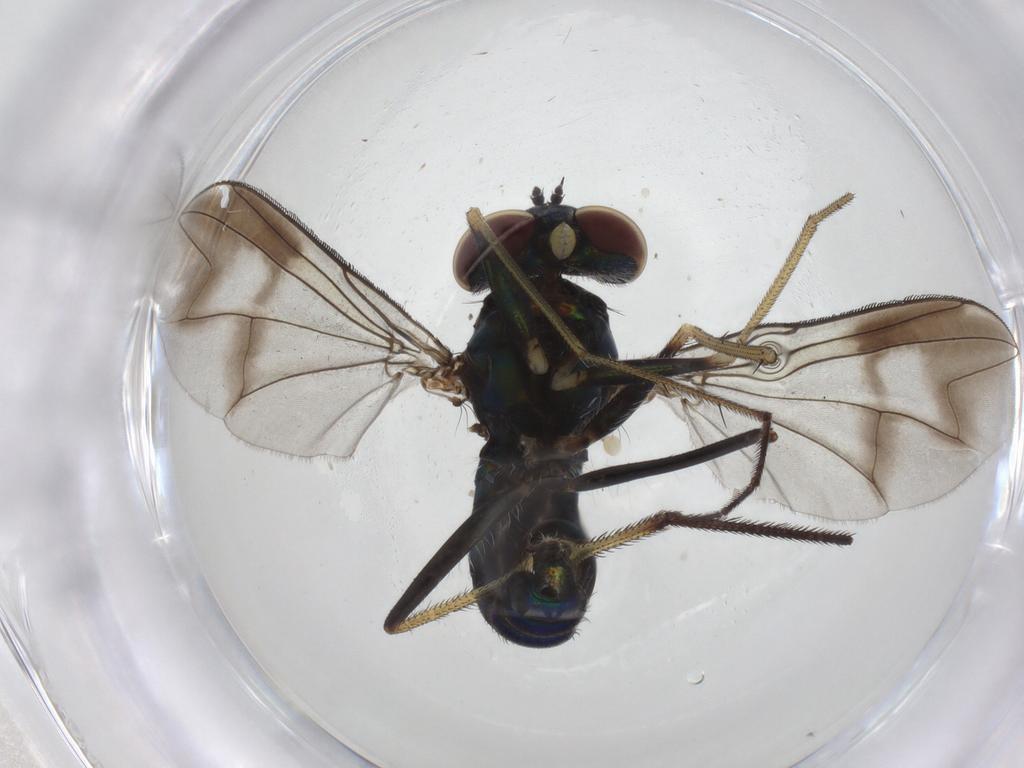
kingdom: Animalia
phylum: Arthropoda
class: Insecta
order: Diptera
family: Dolichopodidae
